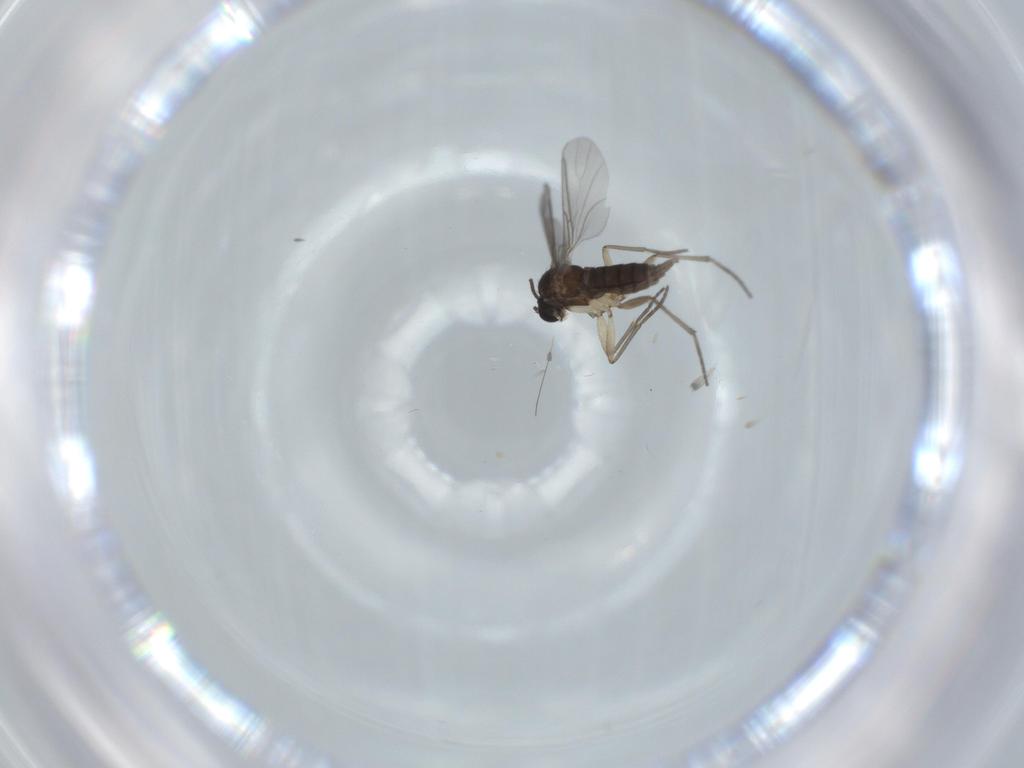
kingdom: Animalia
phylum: Arthropoda
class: Insecta
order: Diptera
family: Sciaridae
